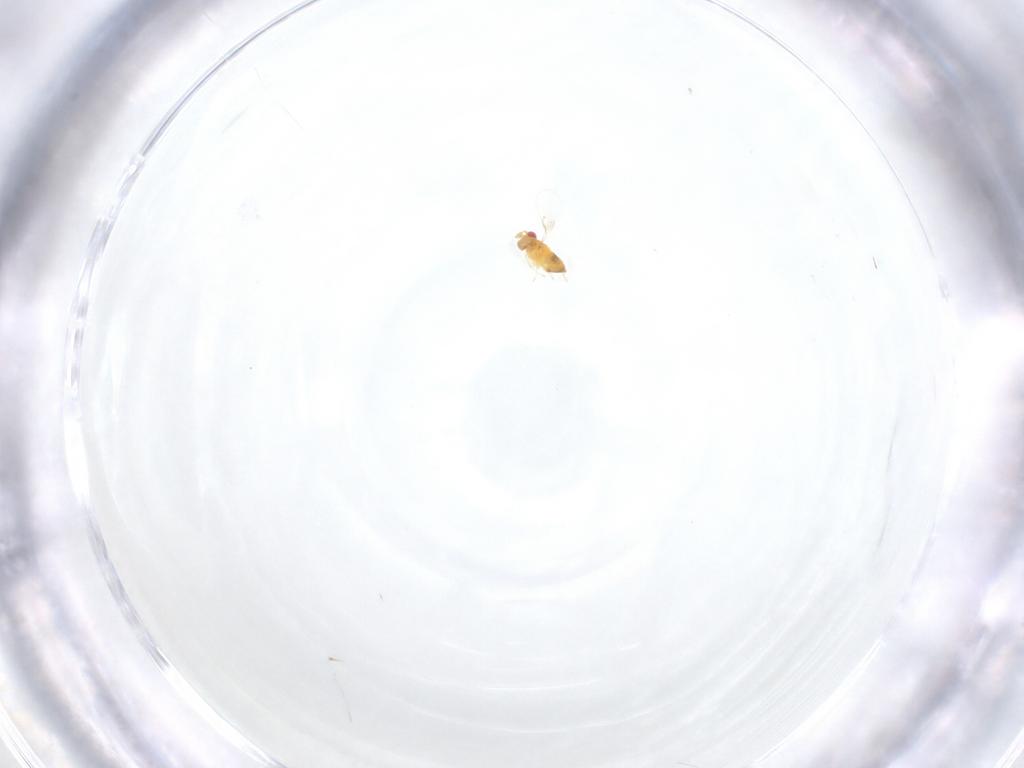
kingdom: Animalia
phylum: Arthropoda
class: Insecta
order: Hymenoptera
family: Trichogrammatidae
